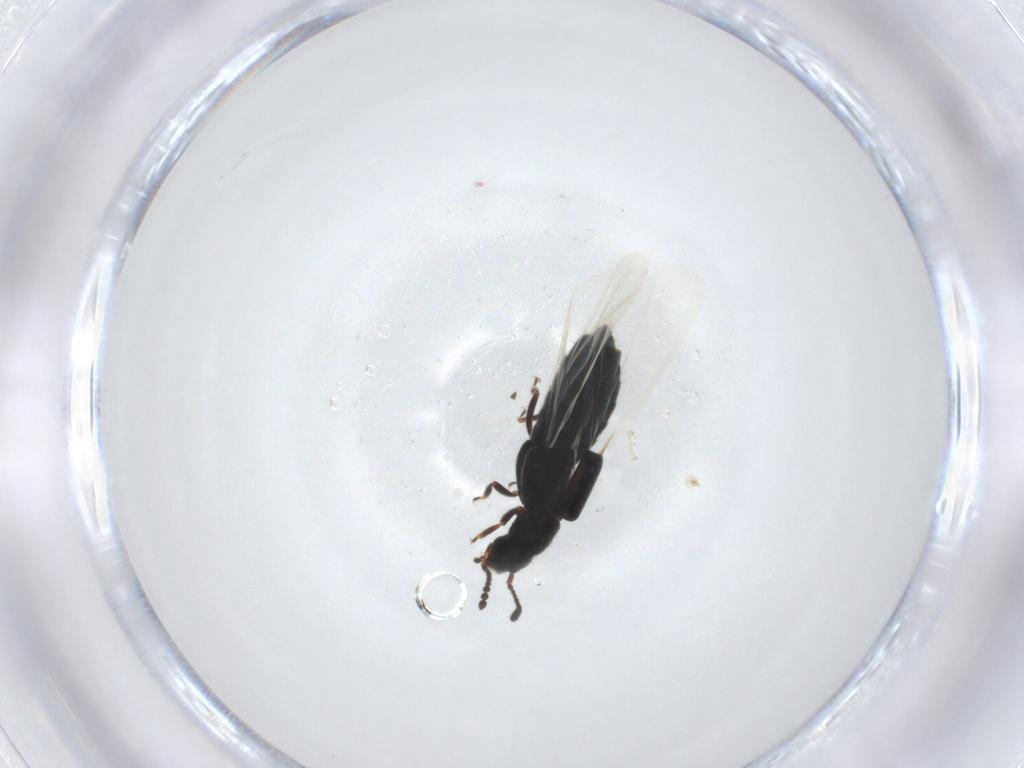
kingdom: Animalia
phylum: Arthropoda
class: Insecta
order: Coleoptera
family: Staphylinidae
